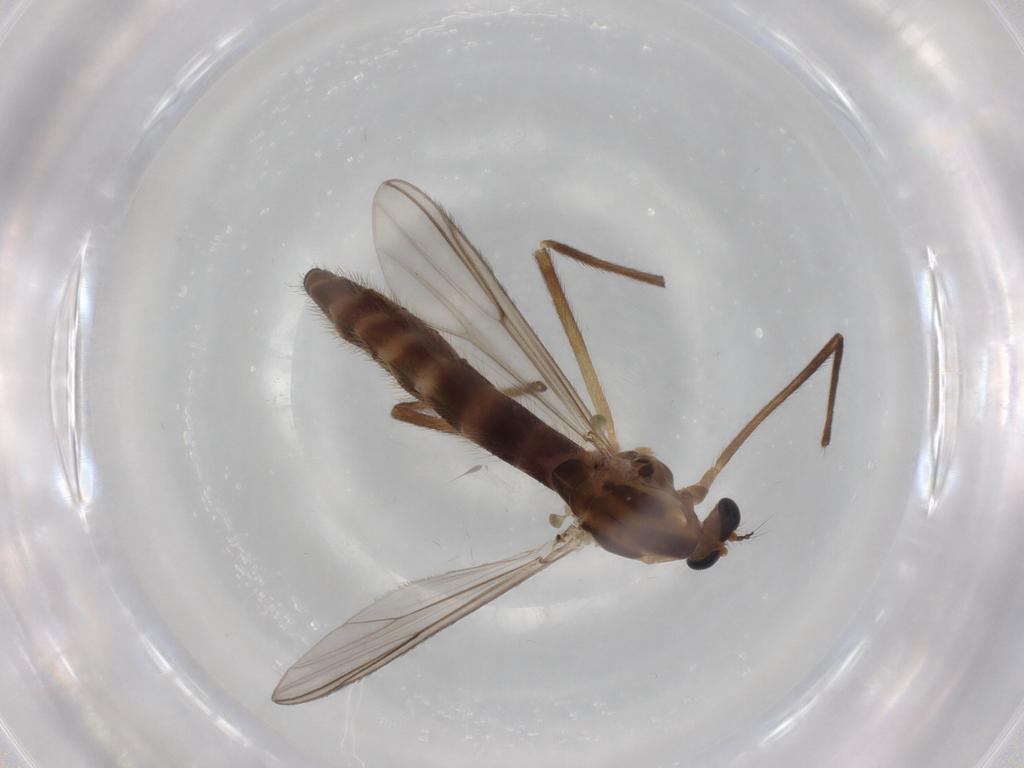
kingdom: Animalia
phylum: Arthropoda
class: Insecta
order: Diptera
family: Chironomidae
